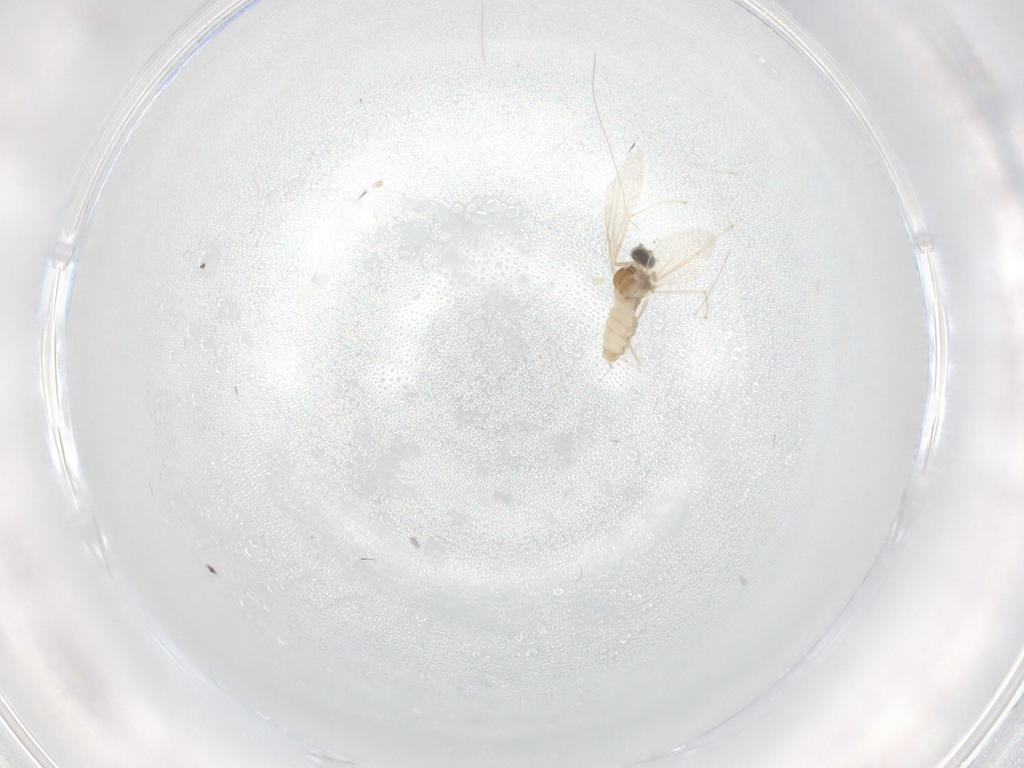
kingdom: Animalia
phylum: Arthropoda
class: Insecta
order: Diptera
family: Cecidomyiidae
